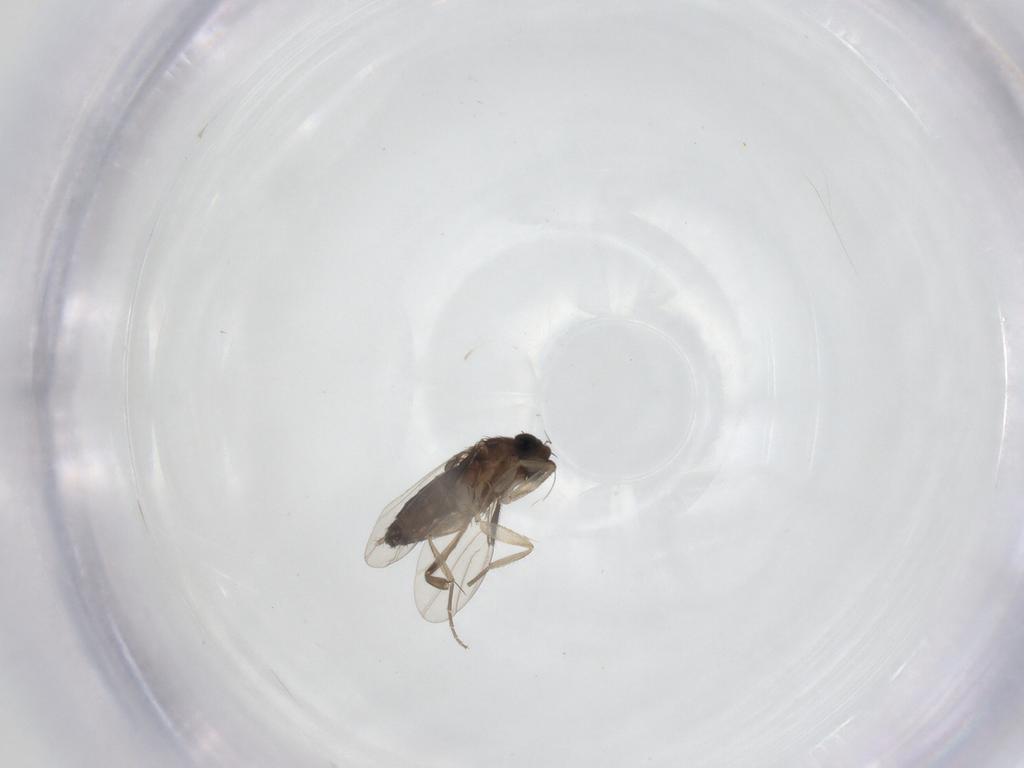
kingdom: Animalia
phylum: Arthropoda
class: Insecta
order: Diptera
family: Phoridae
